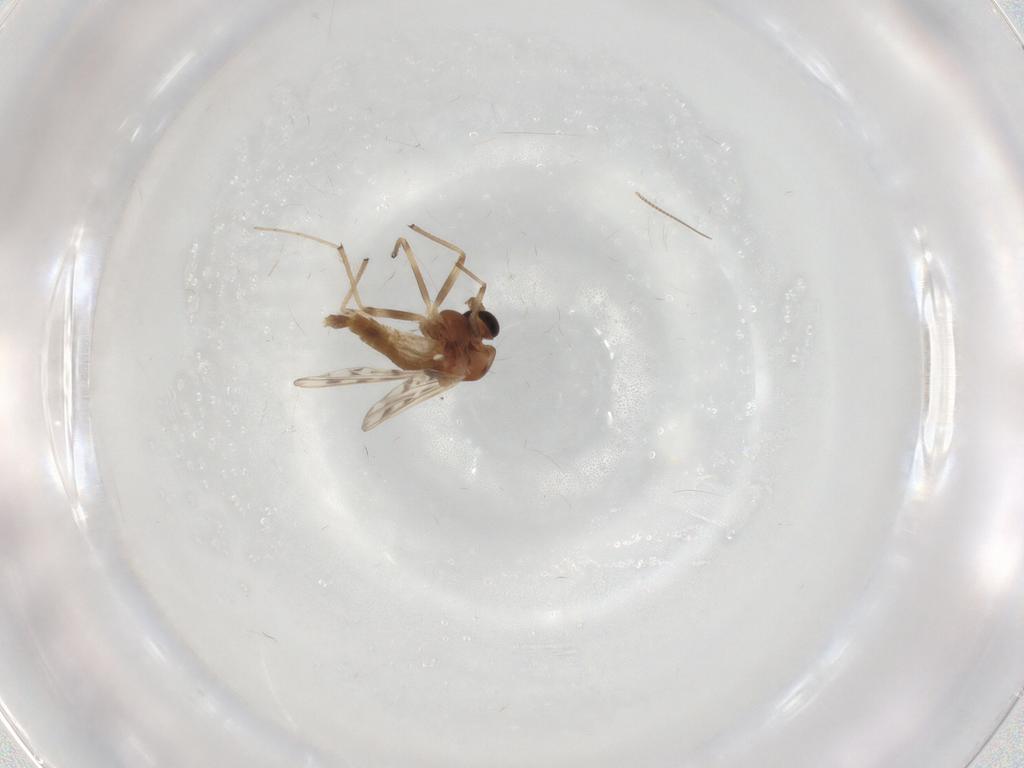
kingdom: Animalia
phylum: Arthropoda
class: Insecta
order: Diptera
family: Chironomidae
